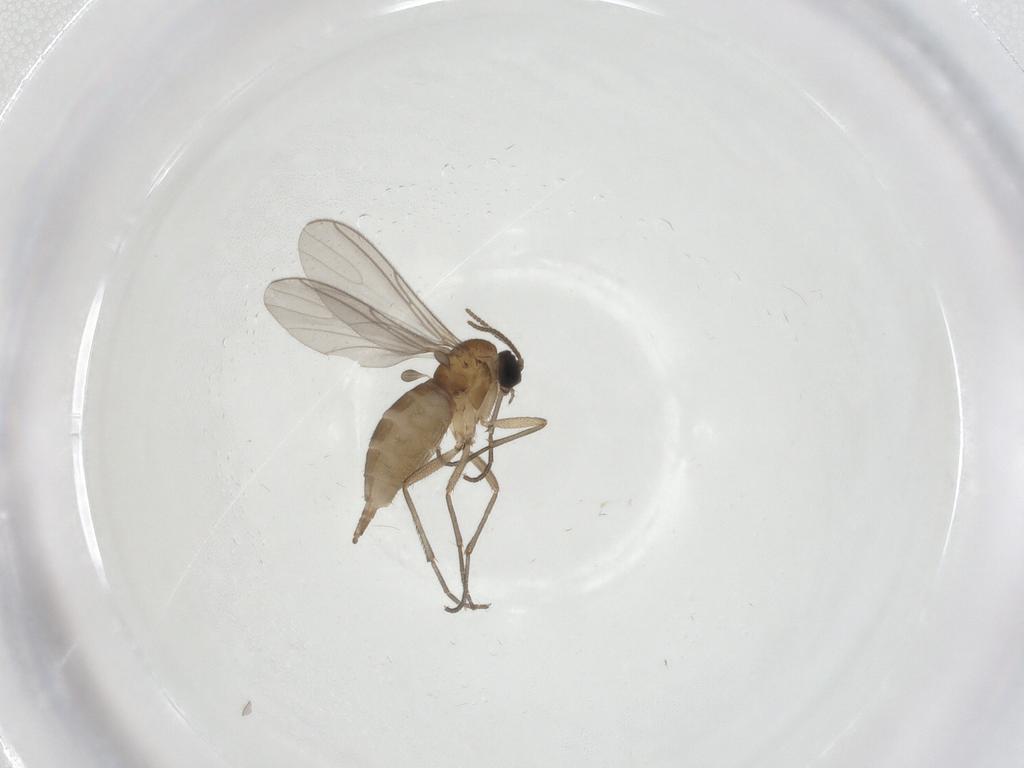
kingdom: Animalia
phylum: Arthropoda
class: Insecta
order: Diptera
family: Sciaridae
